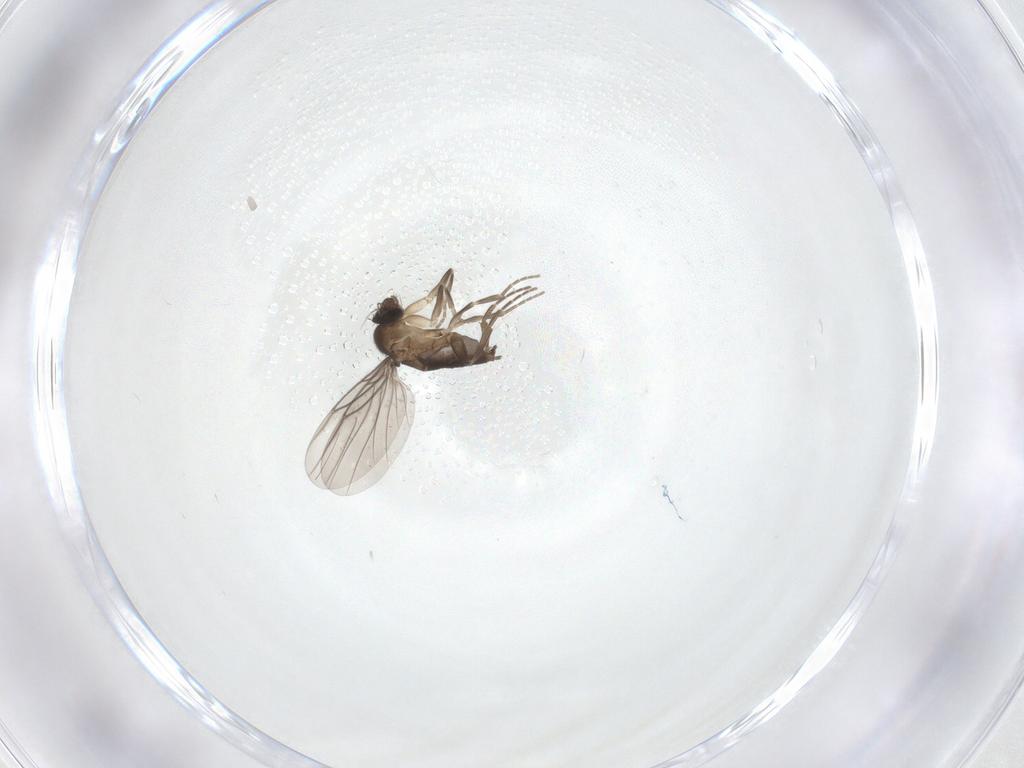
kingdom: Animalia
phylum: Arthropoda
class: Insecta
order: Diptera
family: Phoridae
